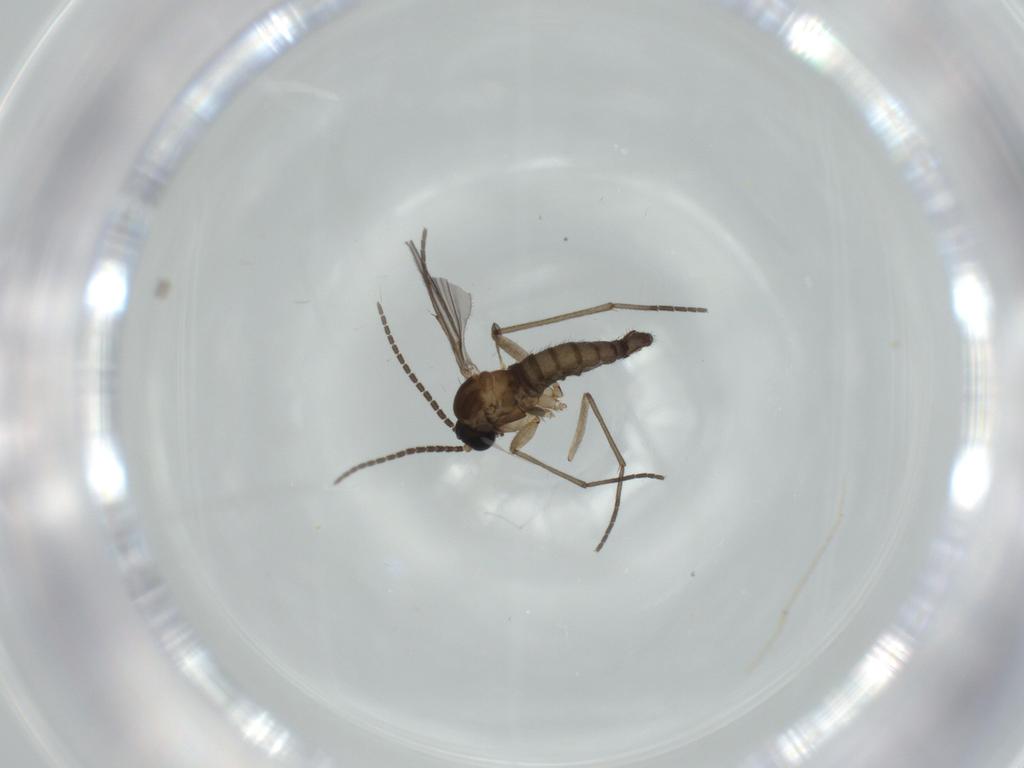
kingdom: Animalia
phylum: Arthropoda
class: Insecta
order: Diptera
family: Sciaridae
